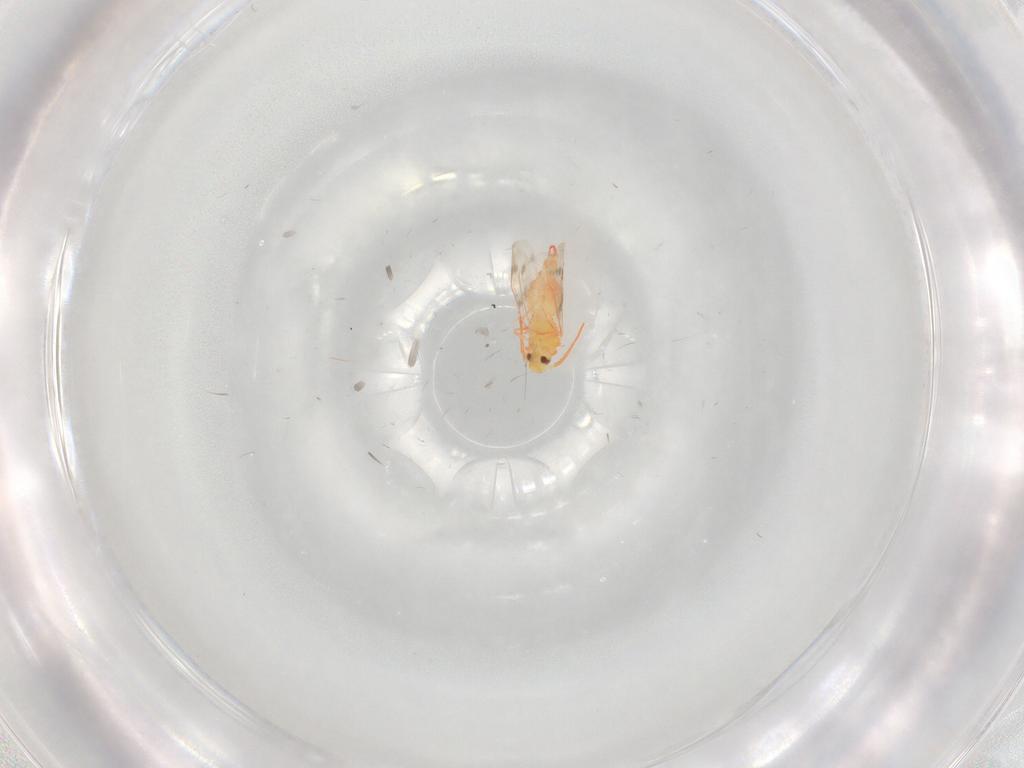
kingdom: Animalia
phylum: Arthropoda
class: Insecta
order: Hemiptera
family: Aleyrodidae
